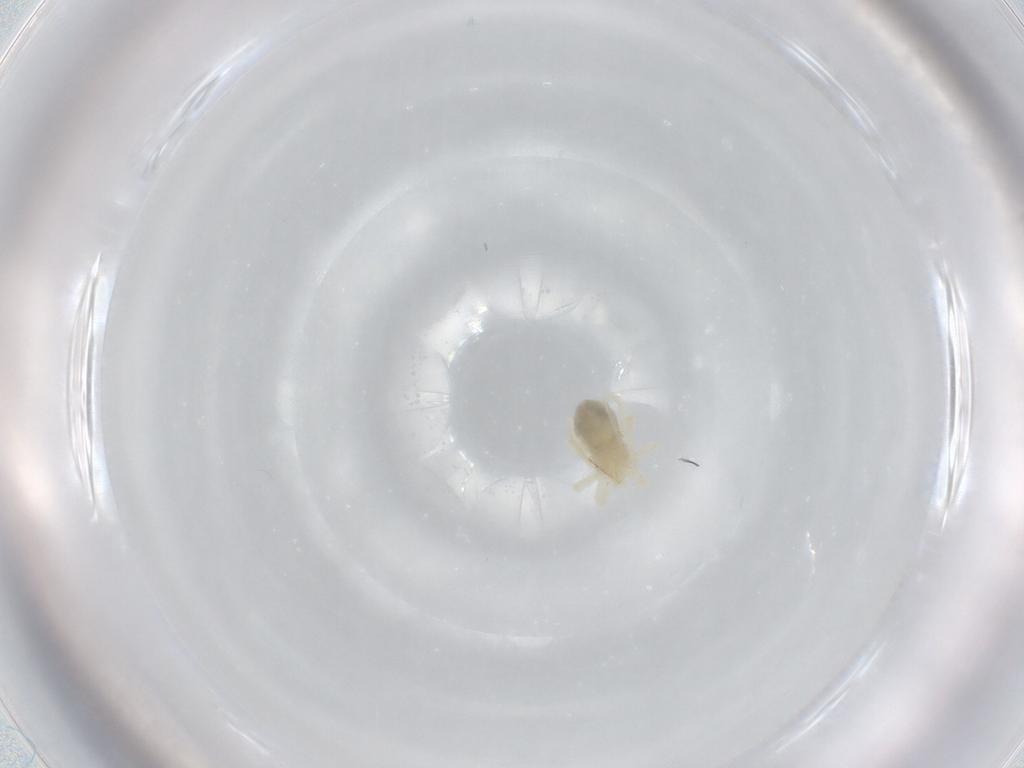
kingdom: Animalia
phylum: Arthropoda
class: Arachnida
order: Trombidiformes
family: Anystidae
